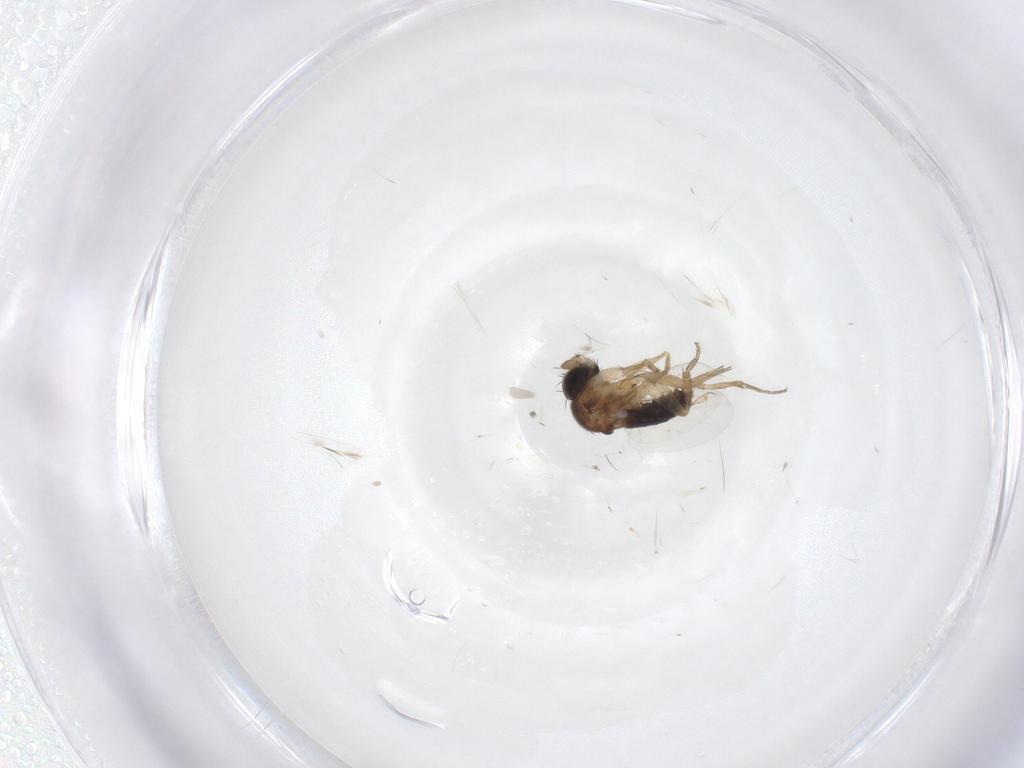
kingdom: Animalia
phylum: Arthropoda
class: Insecta
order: Diptera
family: Phoridae
